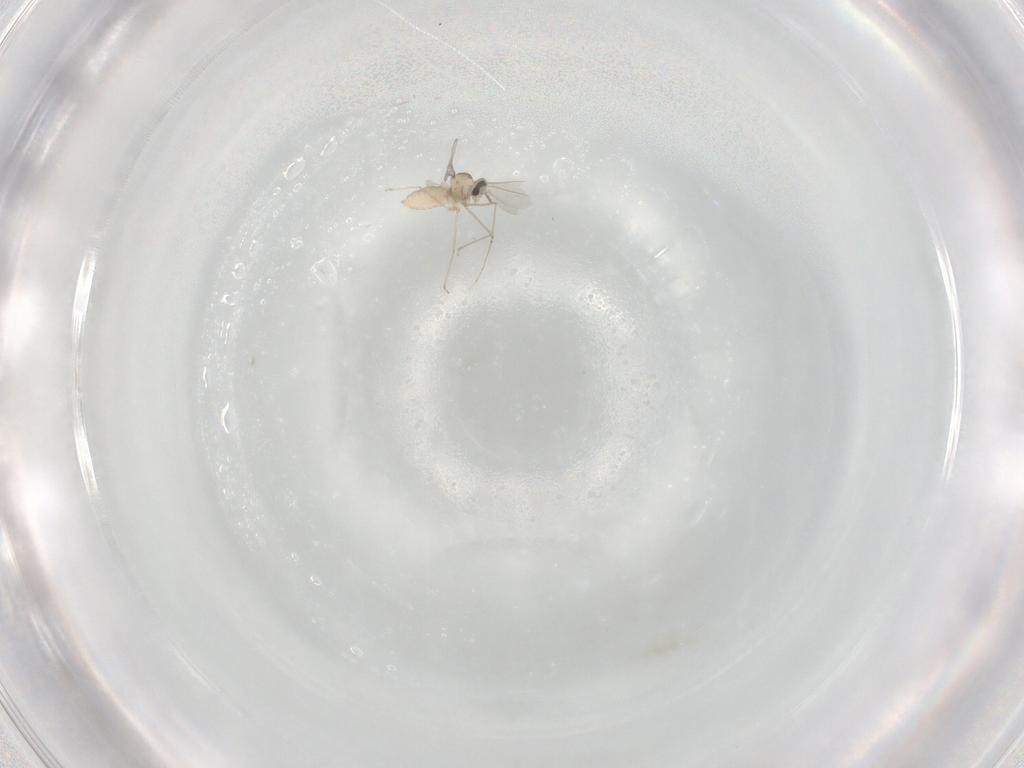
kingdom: Animalia
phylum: Arthropoda
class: Insecta
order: Diptera
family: Cecidomyiidae
